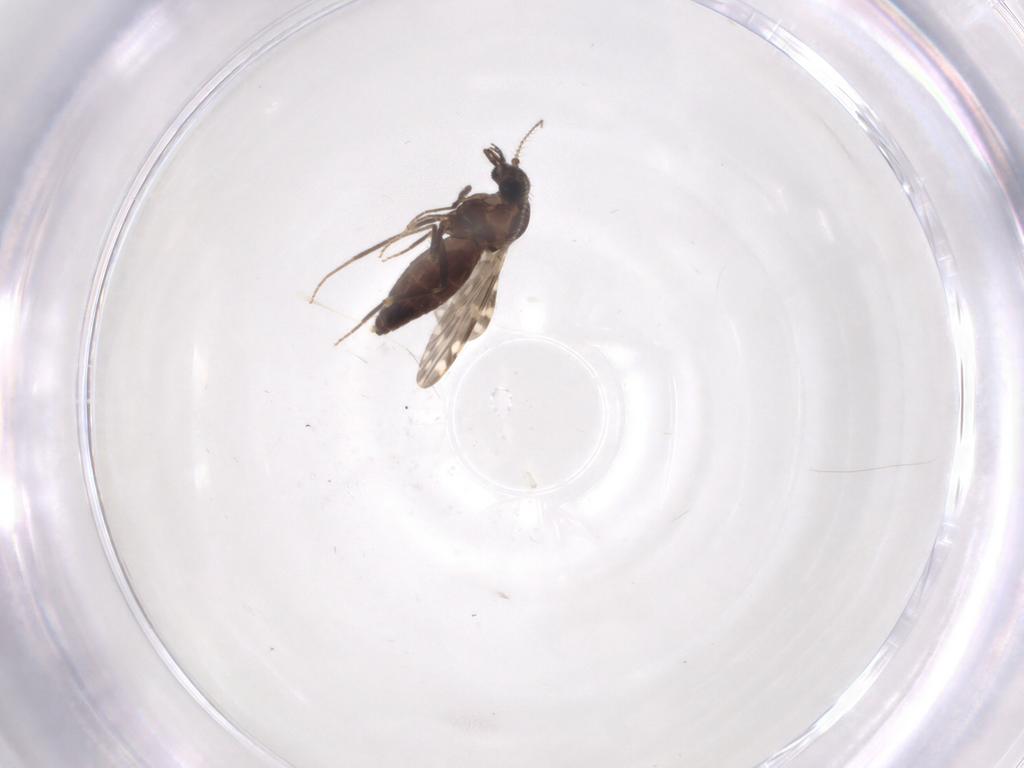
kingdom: Animalia
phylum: Arthropoda
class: Insecta
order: Diptera
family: Ceratopogonidae
